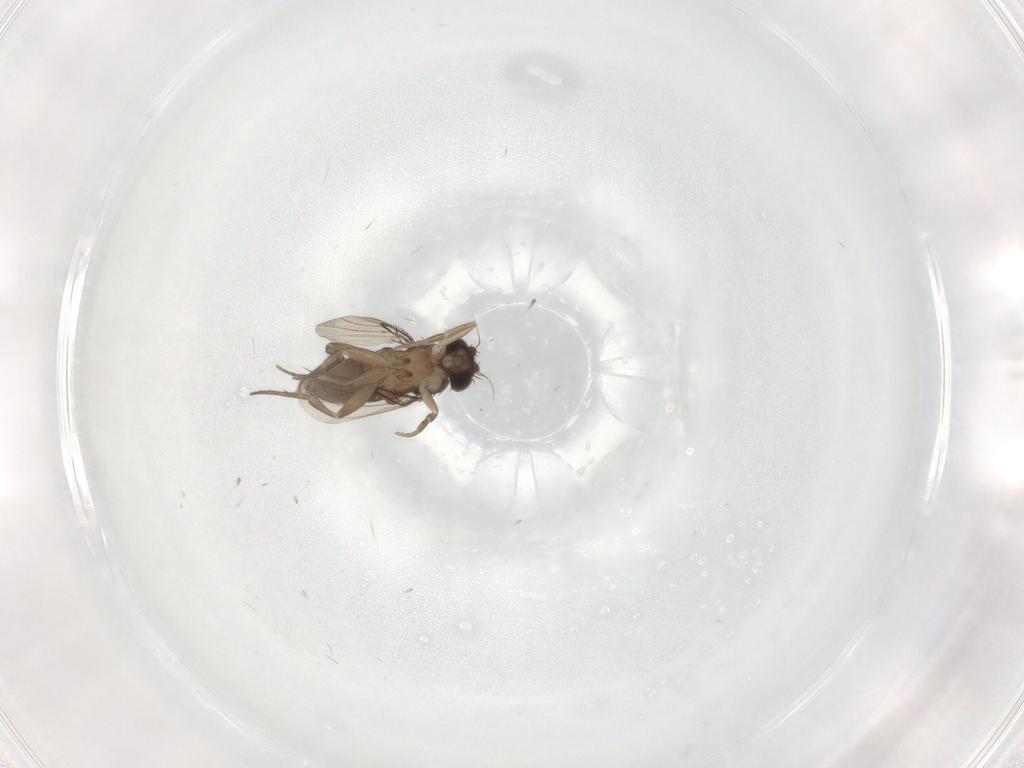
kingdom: Animalia
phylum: Arthropoda
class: Insecta
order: Diptera
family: Phoridae
